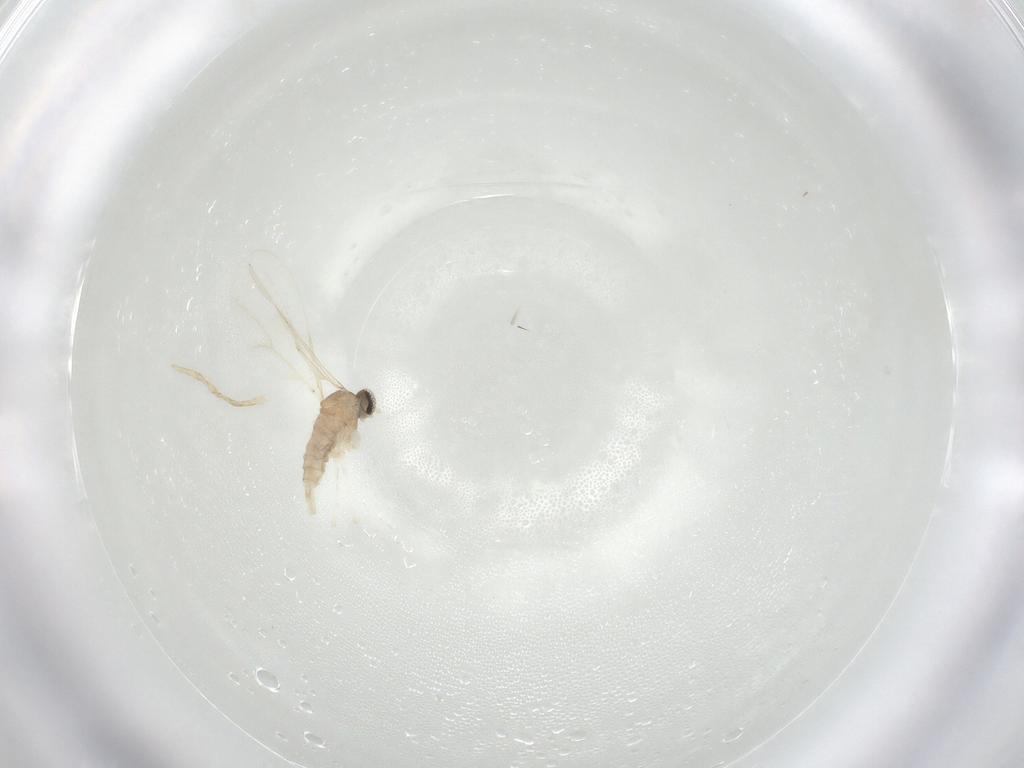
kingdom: Animalia
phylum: Arthropoda
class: Insecta
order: Diptera
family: Cecidomyiidae
